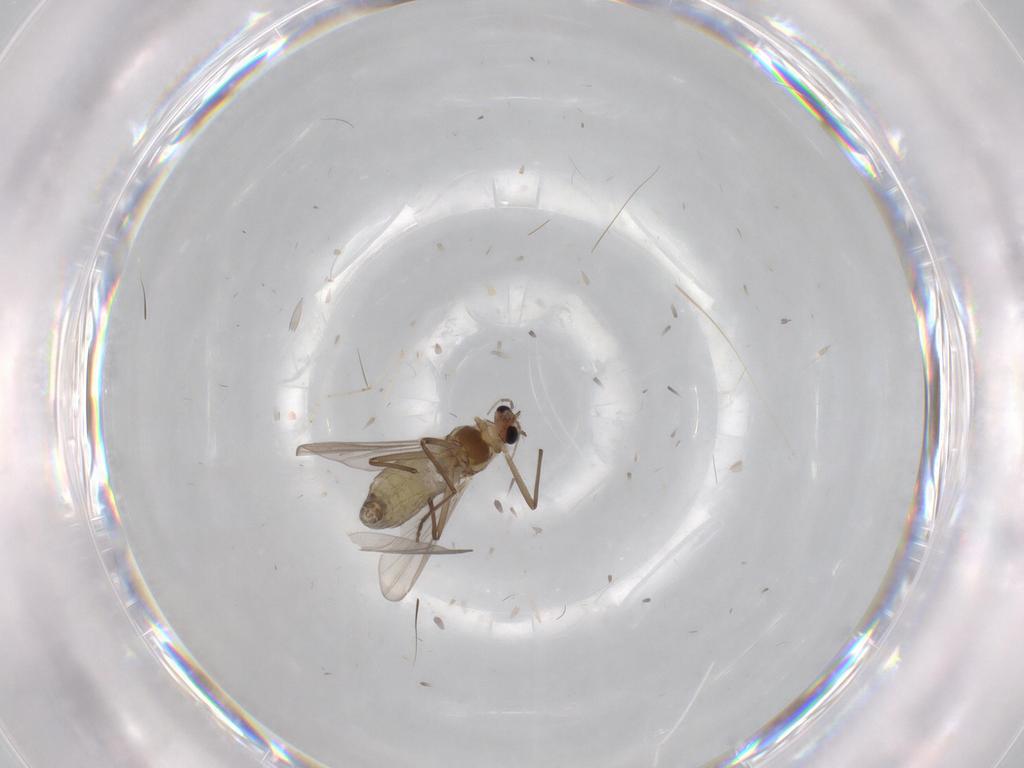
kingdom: Animalia
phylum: Arthropoda
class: Insecta
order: Diptera
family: Chironomidae
